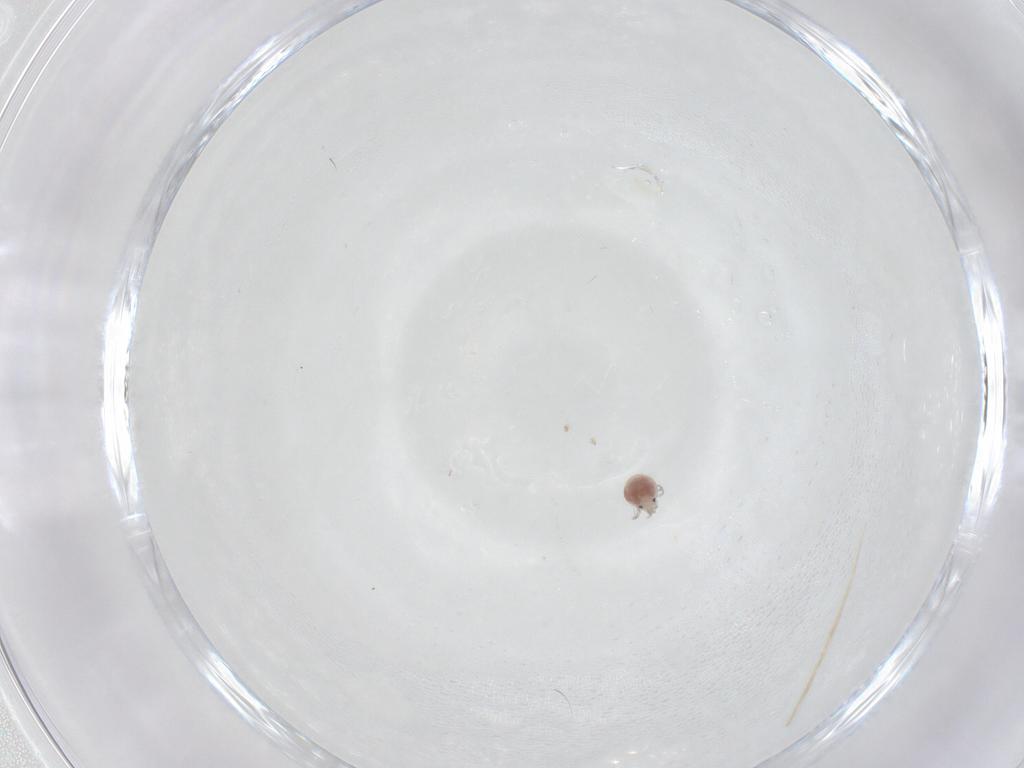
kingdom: Animalia
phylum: Arthropoda
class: Arachnida
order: Trombidiformes
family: Pionidae
